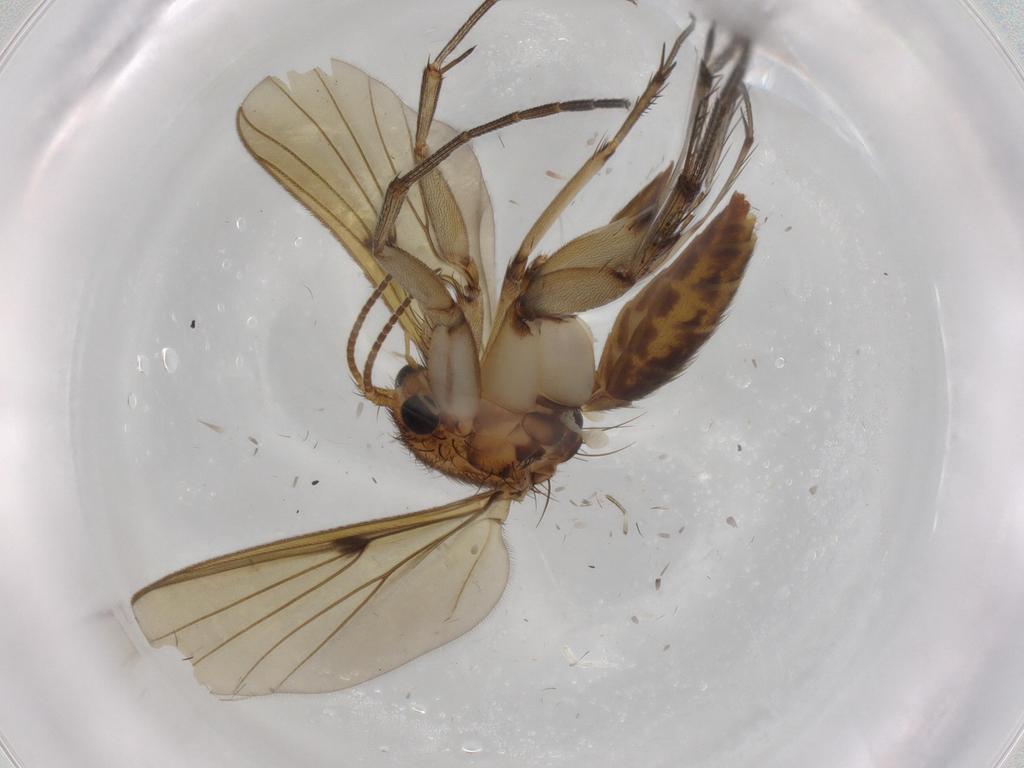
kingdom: Animalia
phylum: Arthropoda
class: Insecta
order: Diptera
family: Mycetophilidae
